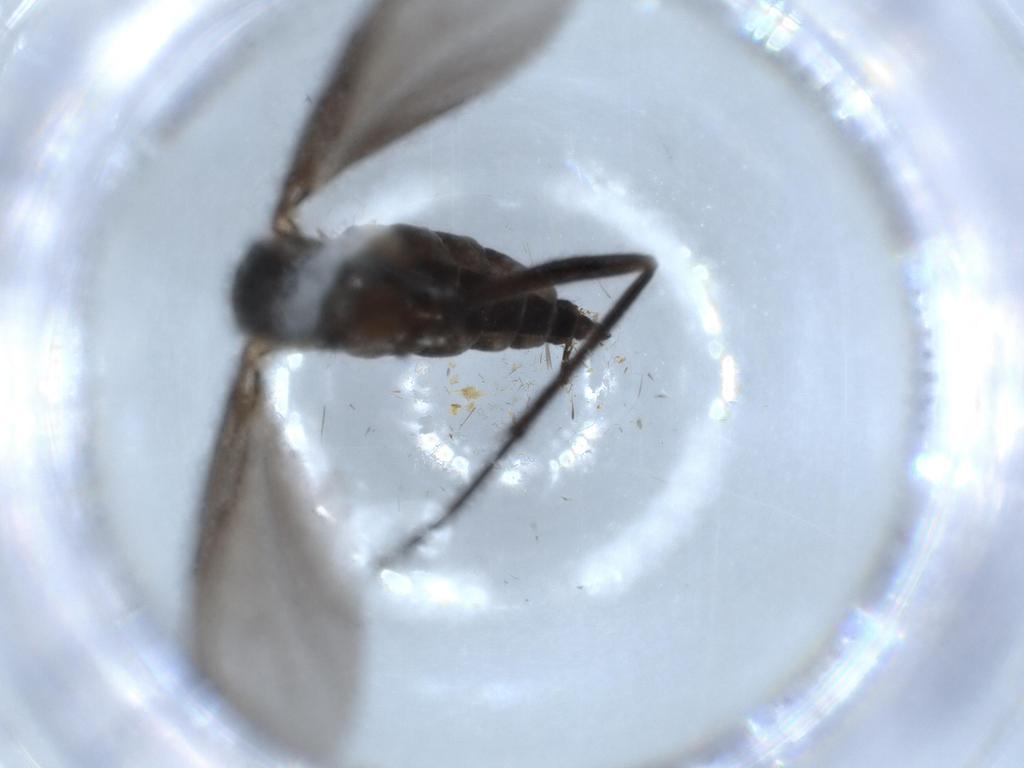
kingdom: Animalia
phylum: Arthropoda
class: Insecta
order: Diptera
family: Sciaridae
